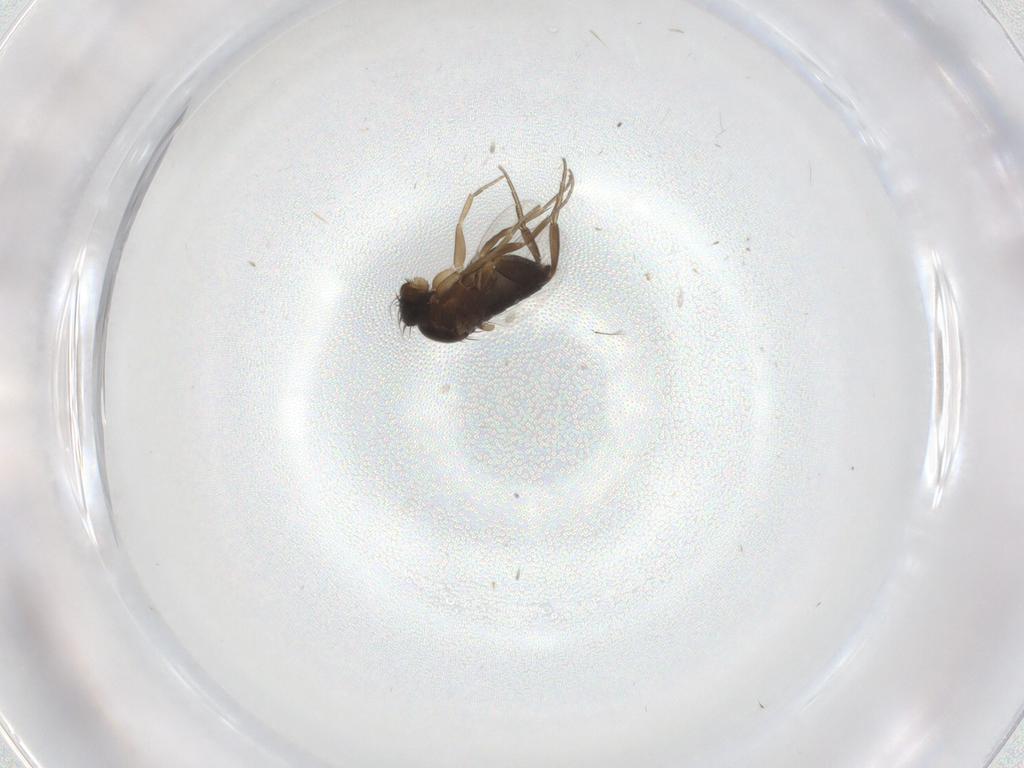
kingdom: Animalia
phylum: Arthropoda
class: Insecta
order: Diptera
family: Phoridae
